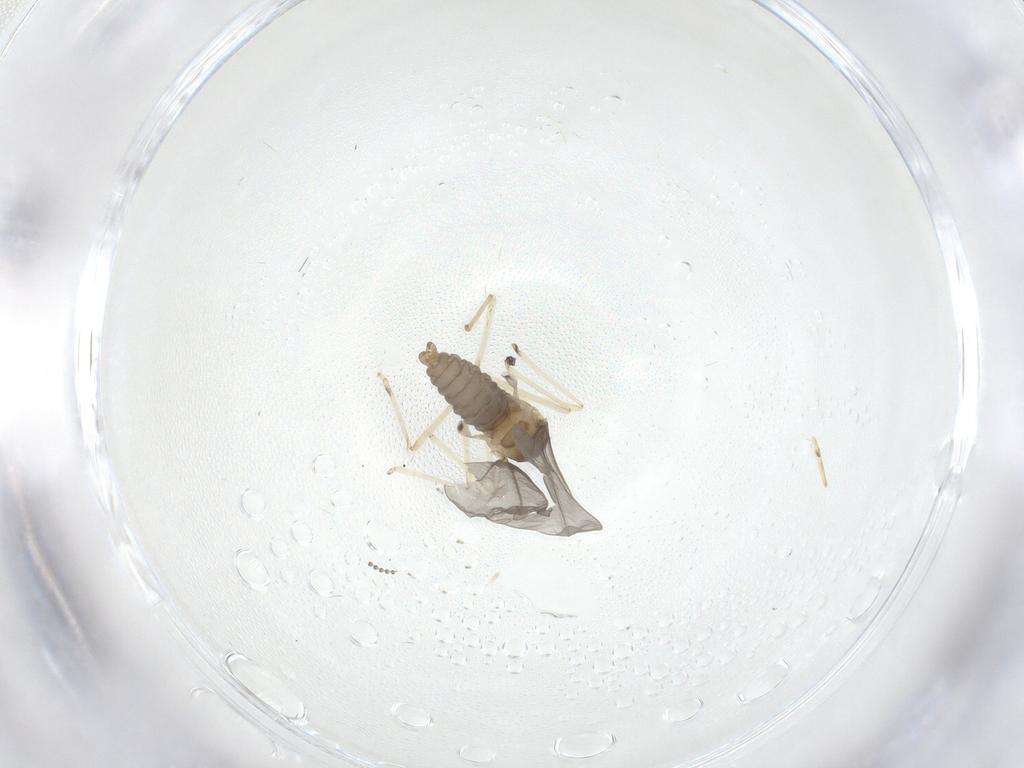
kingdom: Animalia
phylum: Arthropoda
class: Insecta
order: Diptera
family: Cecidomyiidae
